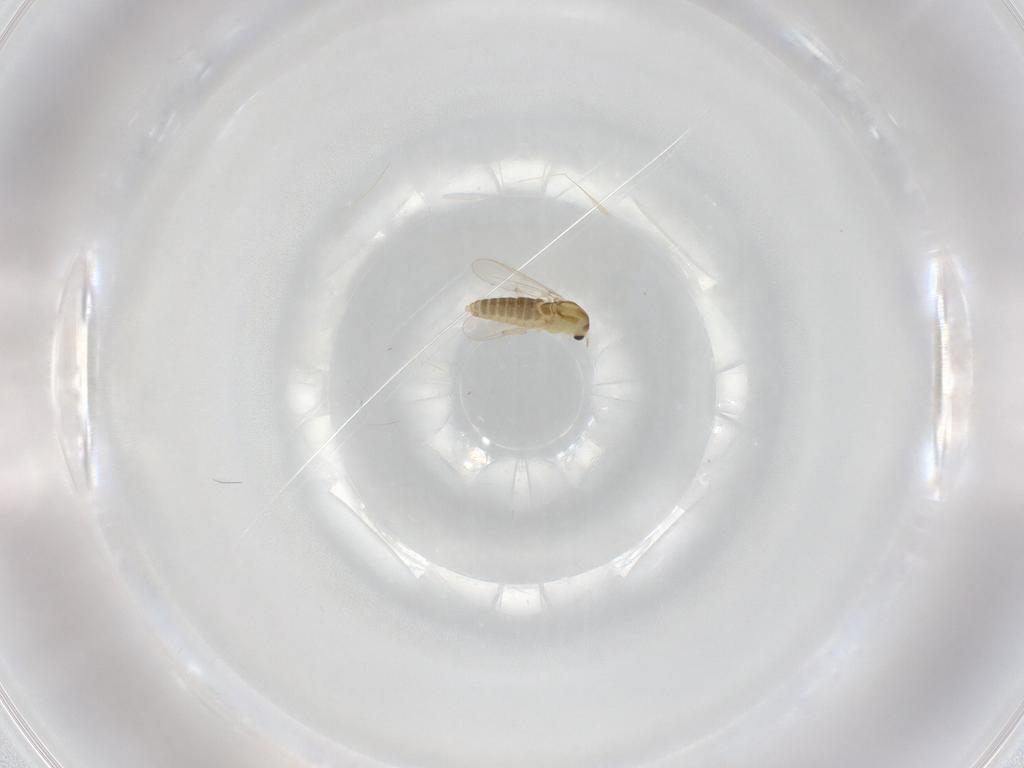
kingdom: Animalia
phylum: Arthropoda
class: Insecta
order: Diptera
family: Chironomidae
